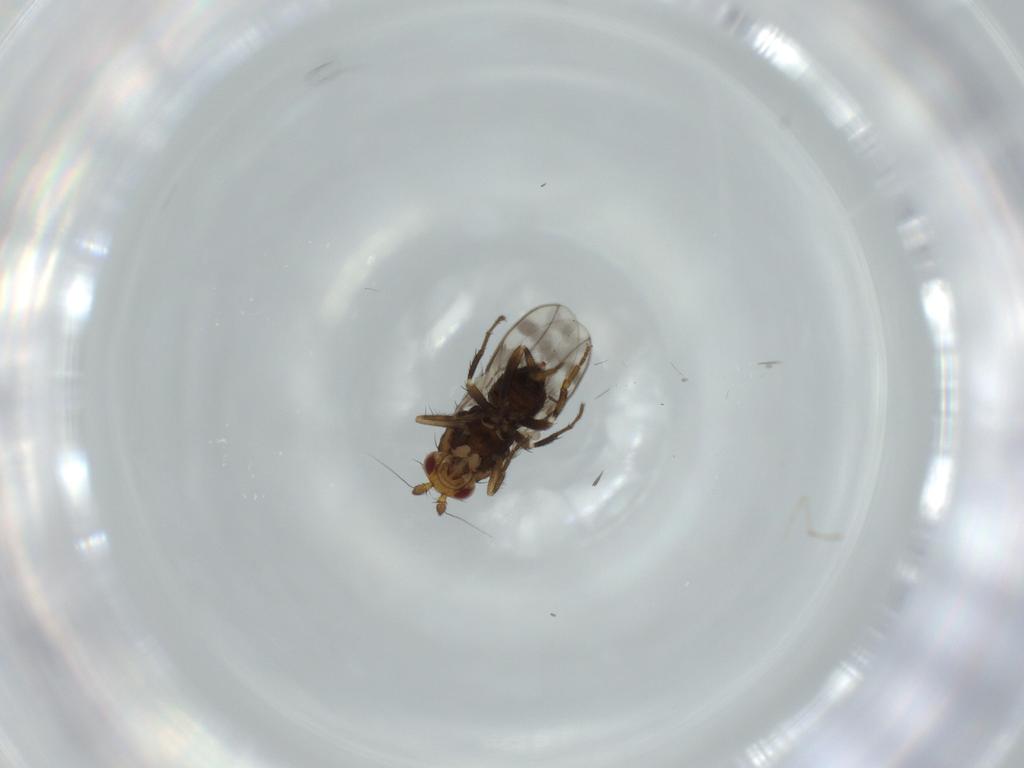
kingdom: Animalia
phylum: Arthropoda
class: Insecta
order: Diptera
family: Sphaeroceridae
